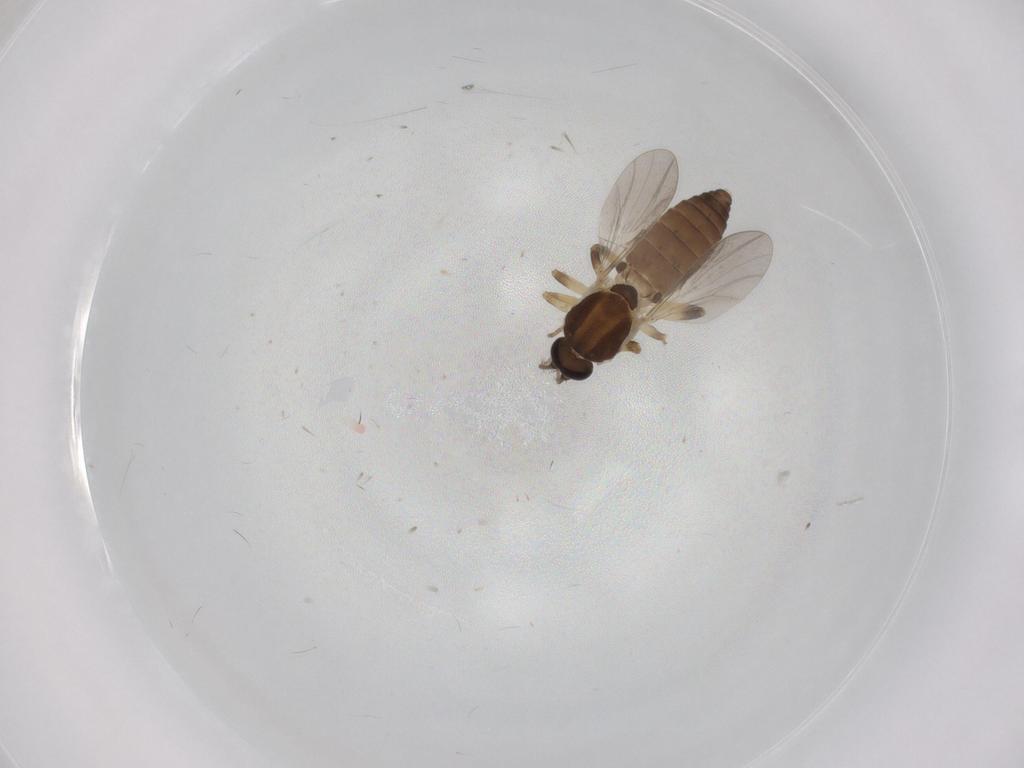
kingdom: Animalia
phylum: Arthropoda
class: Insecta
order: Diptera
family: Ceratopogonidae
